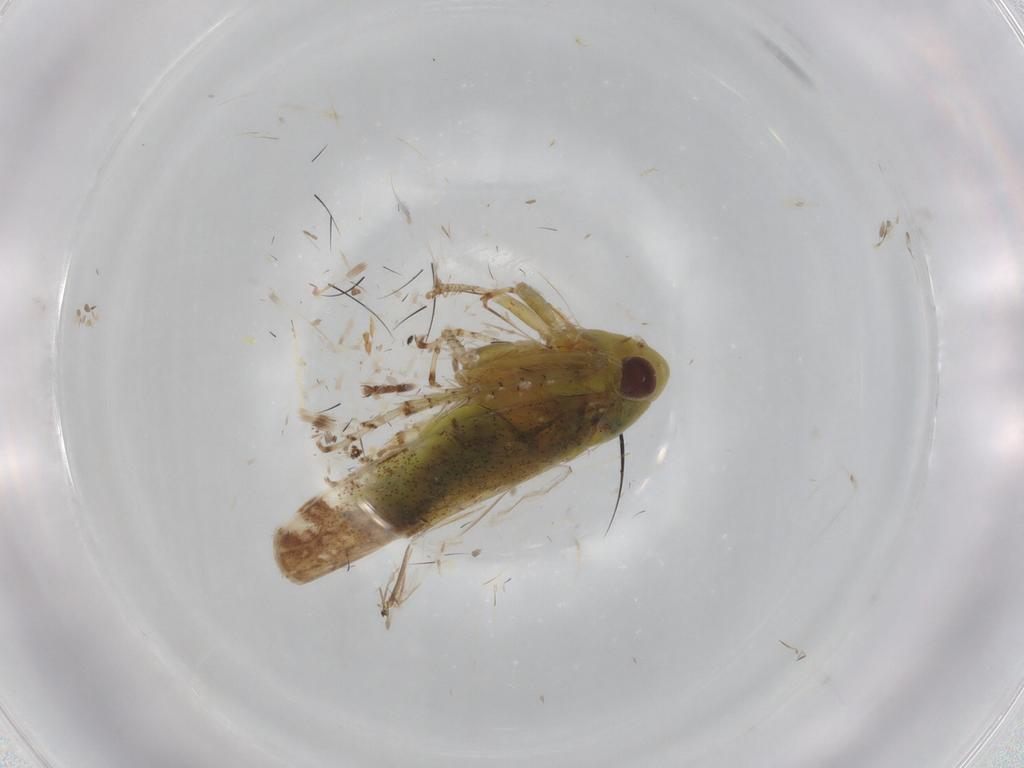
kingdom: Animalia
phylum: Arthropoda
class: Insecta
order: Hemiptera
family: Cicadellidae
